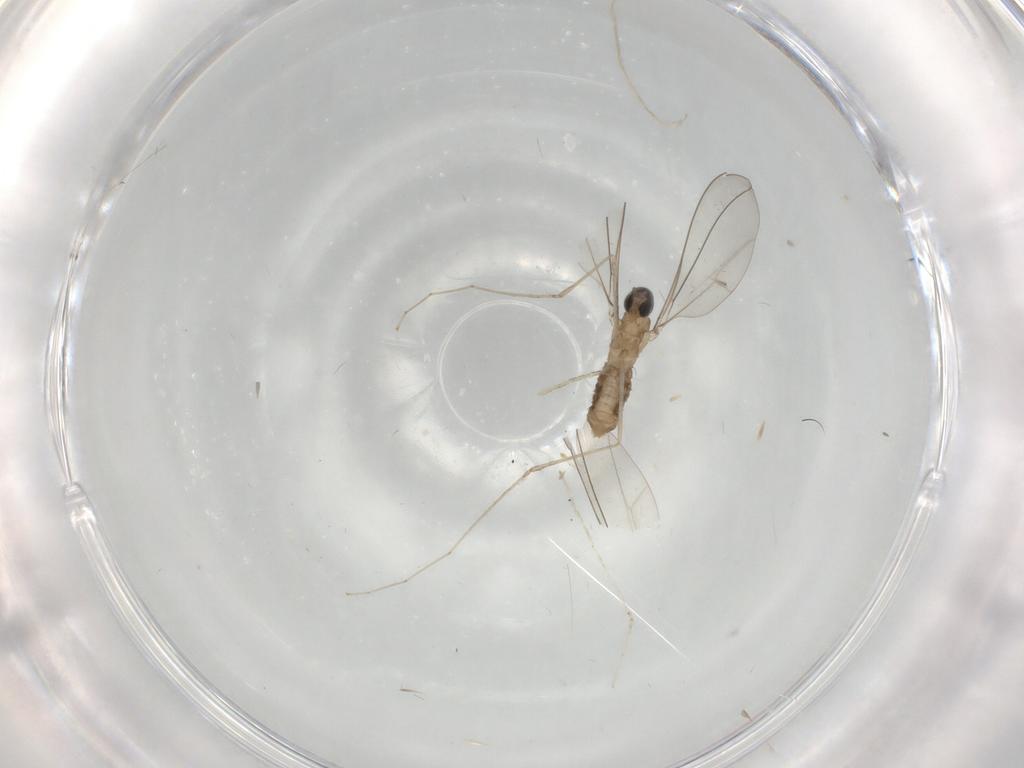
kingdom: Animalia
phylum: Arthropoda
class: Insecta
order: Diptera
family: Cecidomyiidae
